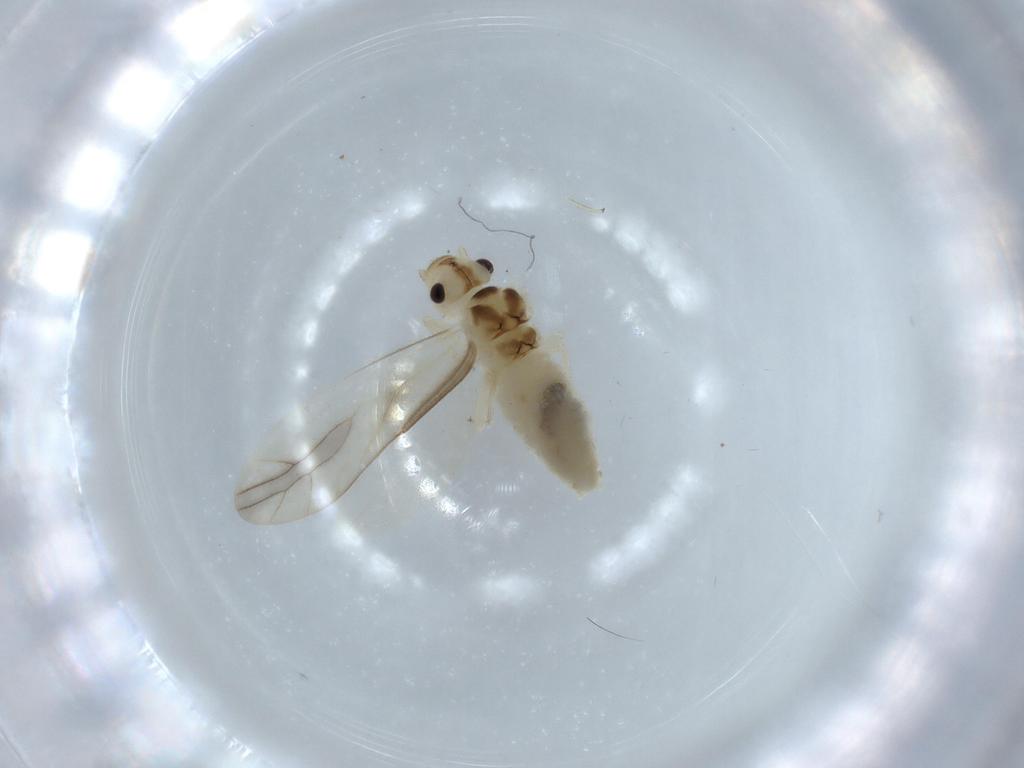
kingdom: Animalia
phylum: Arthropoda
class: Insecta
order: Psocodea
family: Caeciliusidae
